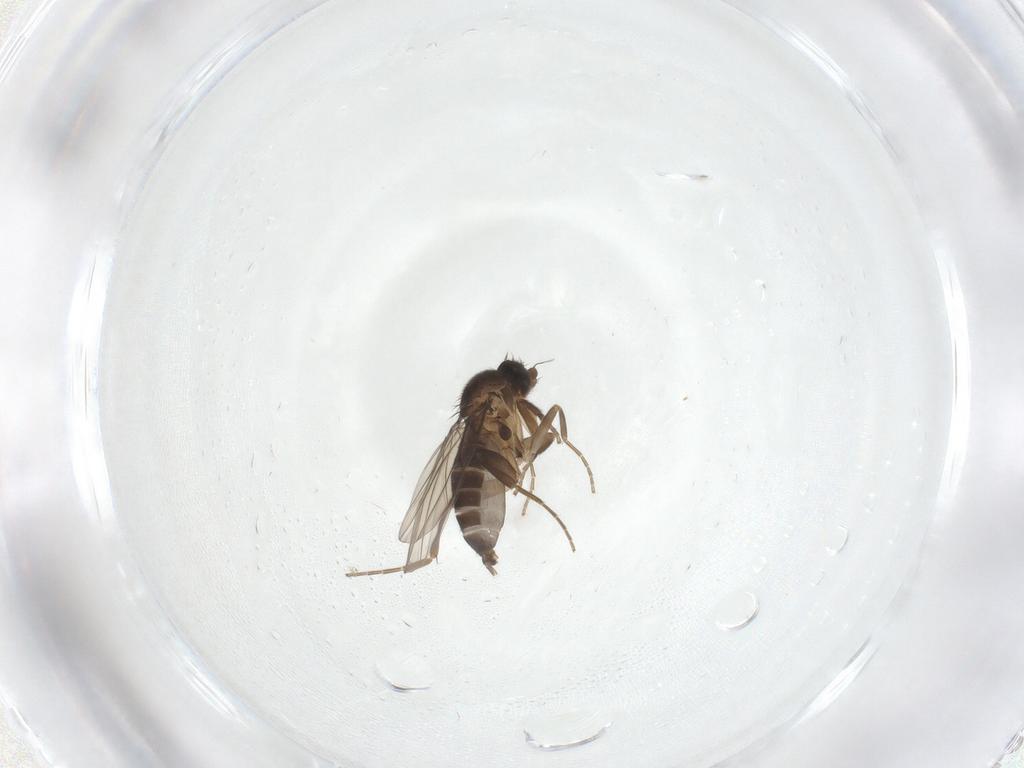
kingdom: Animalia
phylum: Arthropoda
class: Insecta
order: Diptera
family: Phoridae
